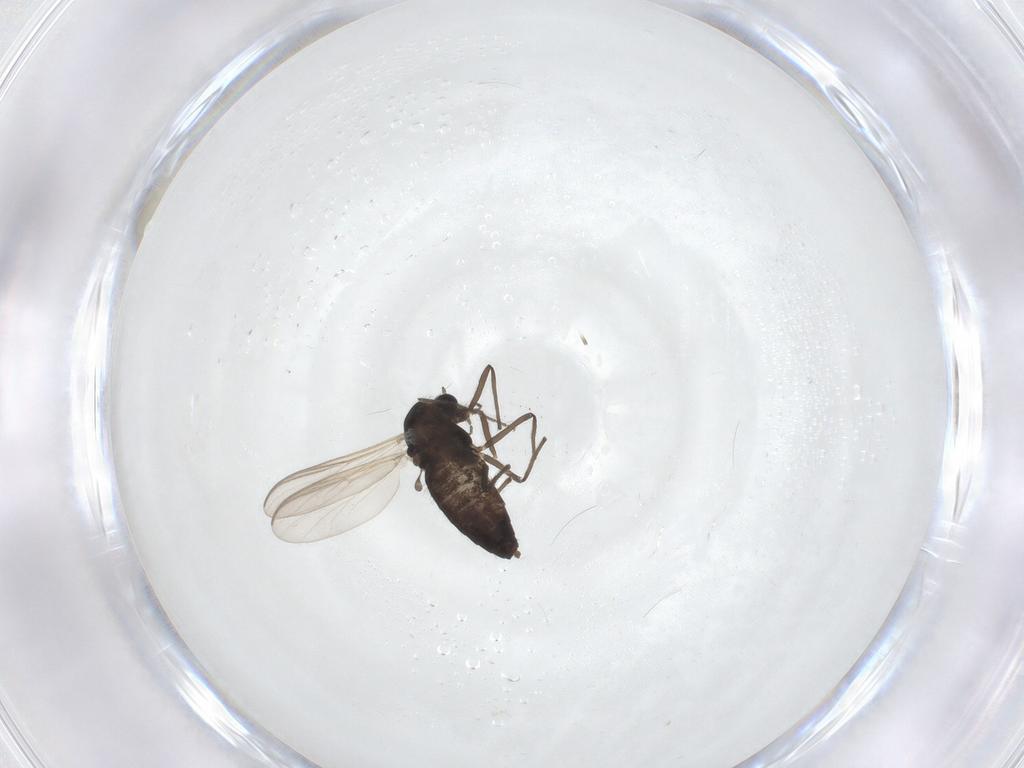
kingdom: Animalia
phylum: Arthropoda
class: Insecta
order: Diptera
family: Chironomidae
